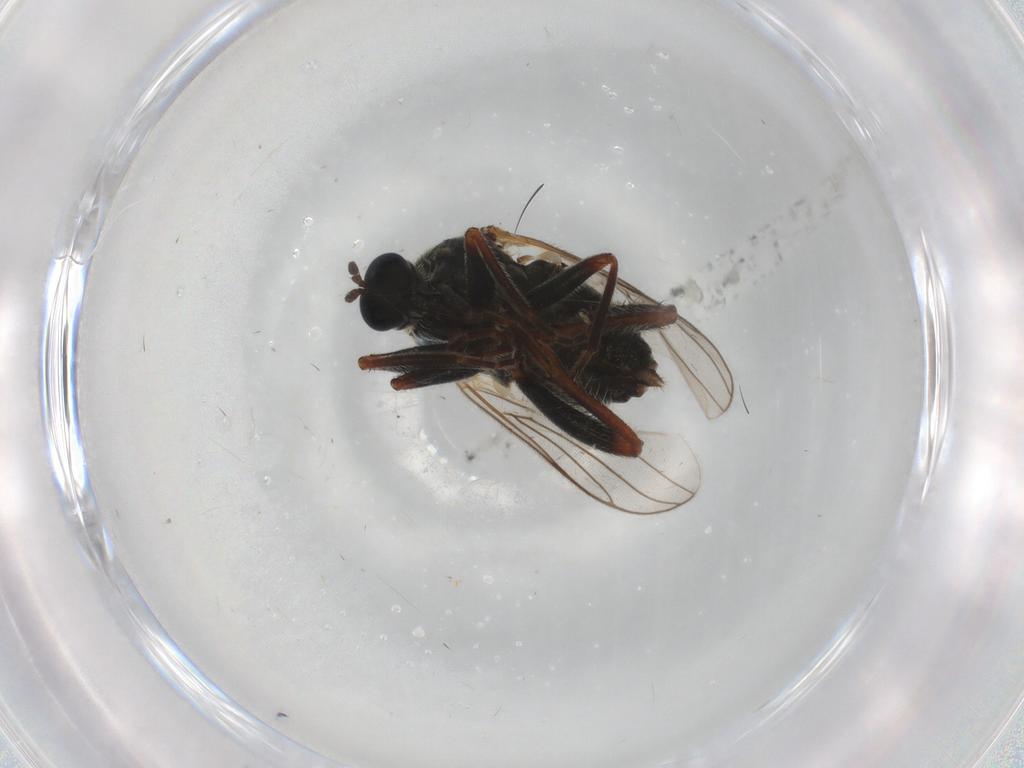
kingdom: Animalia
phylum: Arthropoda
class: Insecta
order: Diptera
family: Hybotidae
